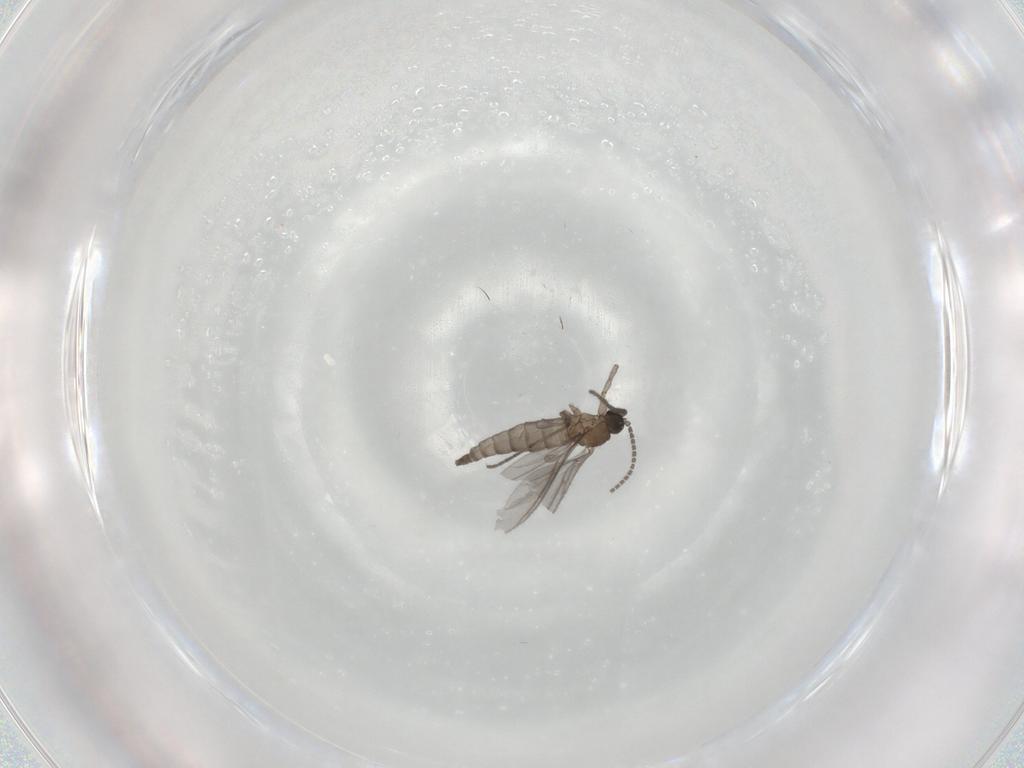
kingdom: Animalia
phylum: Arthropoda
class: Insecta
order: Diptera
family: Sciaridae
